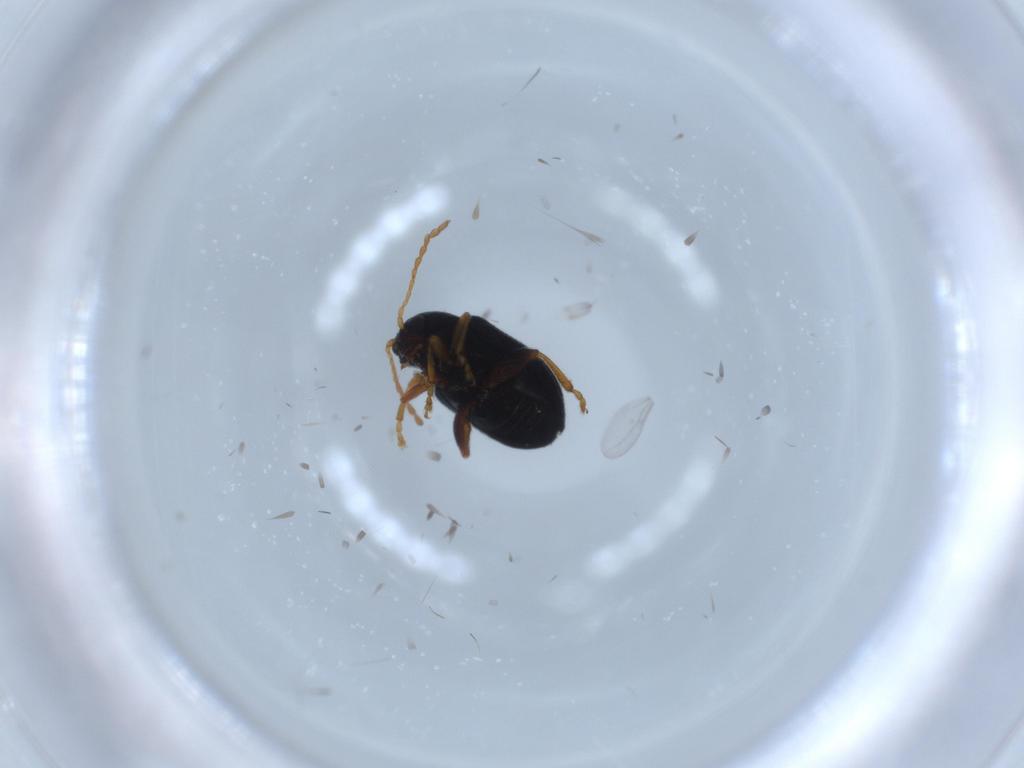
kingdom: Animalia
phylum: Arthropoda
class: Insecta
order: Coleoptera
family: Chrysomelidae
